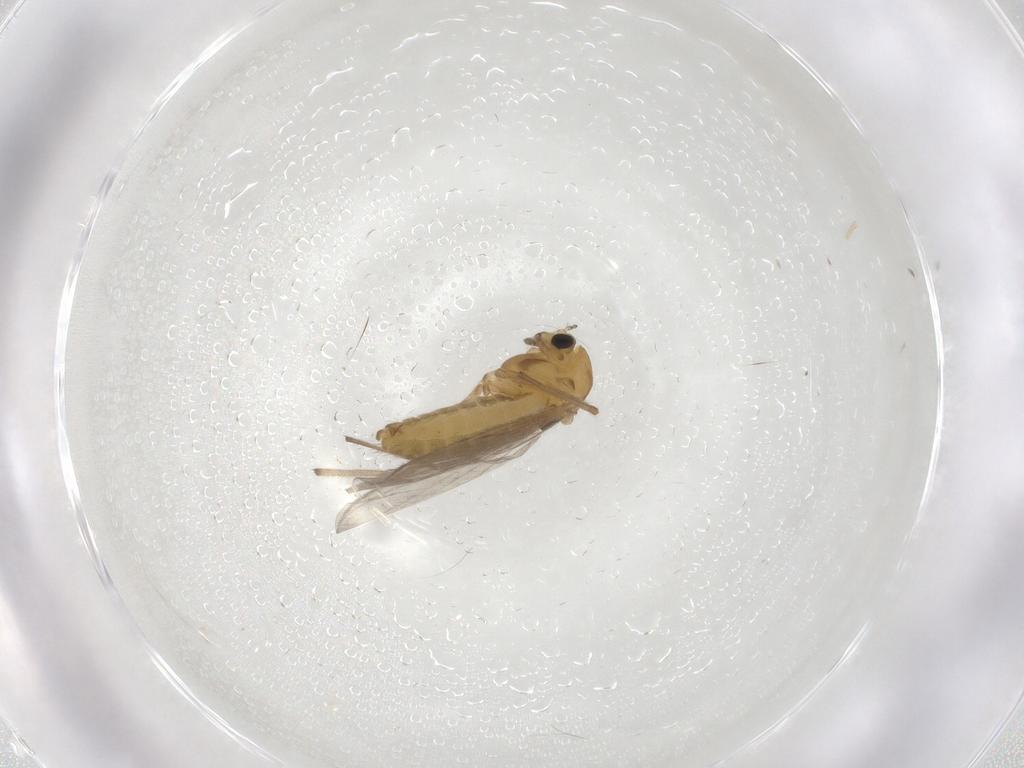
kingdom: Animalia
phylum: Arthropoda
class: Insecta
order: Diptera
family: Chironomidae
